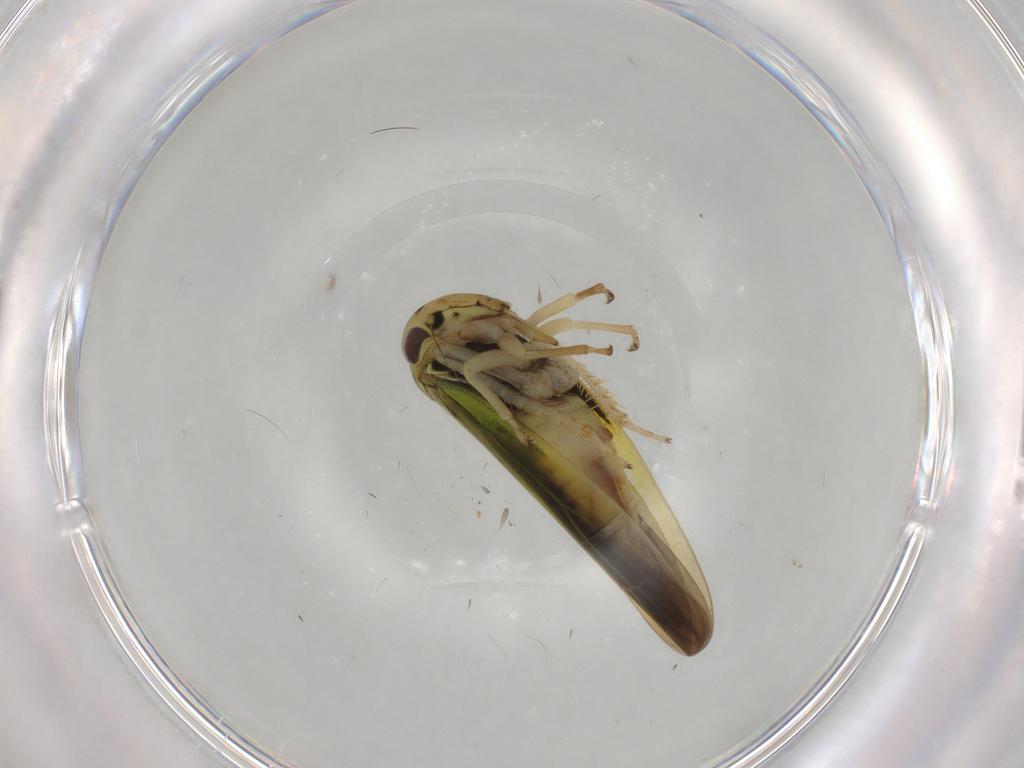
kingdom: Animalia
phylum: Arthropoda
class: Insecta
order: Hemiptera
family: Cicadellidae
